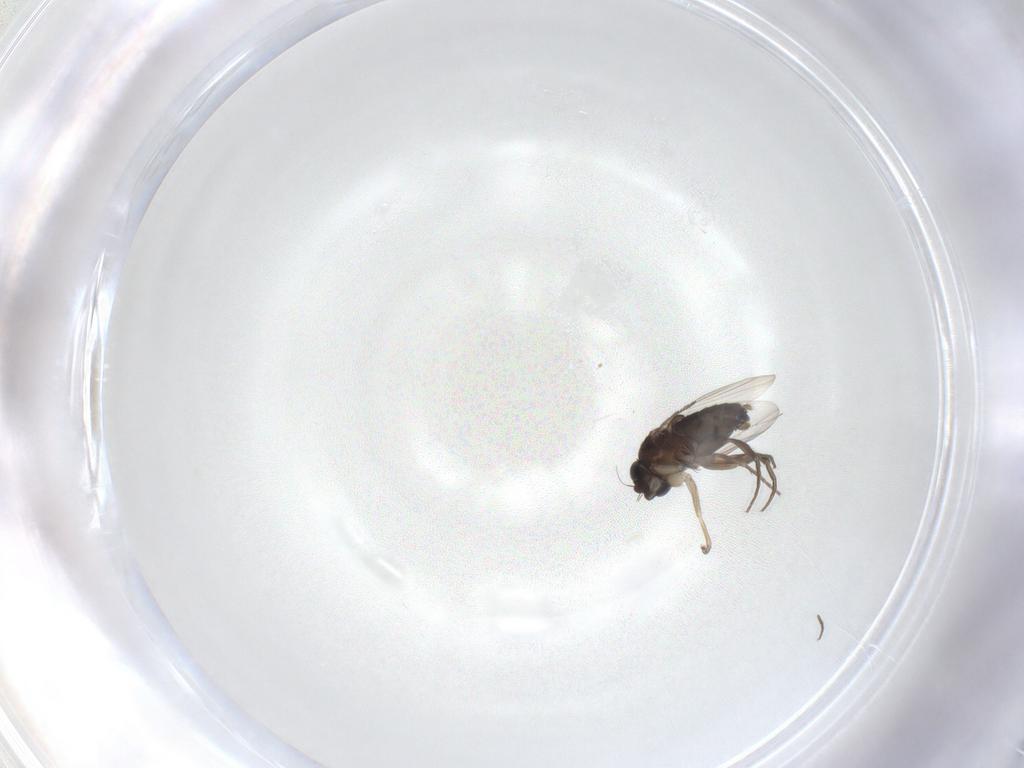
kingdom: Animalia
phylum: Arthropoda
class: Insecta
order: Diptera
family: Chironomidae
